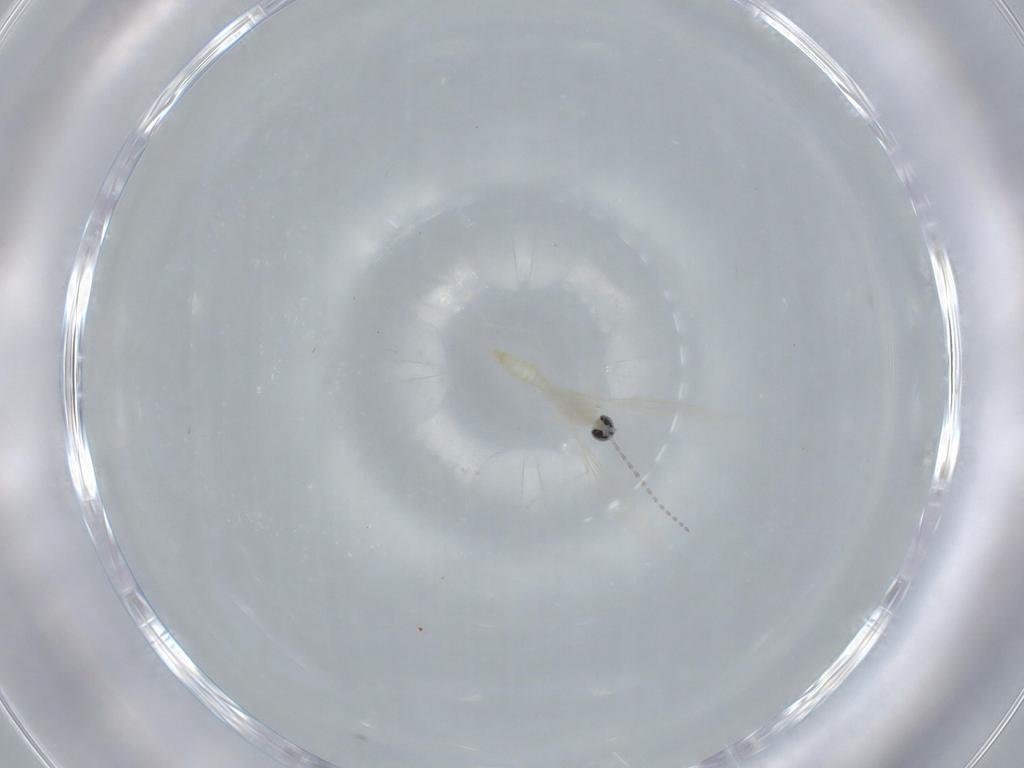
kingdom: Animalia
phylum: Arthropoda
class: Insecta
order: Diptera
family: Cecidomyiidae
